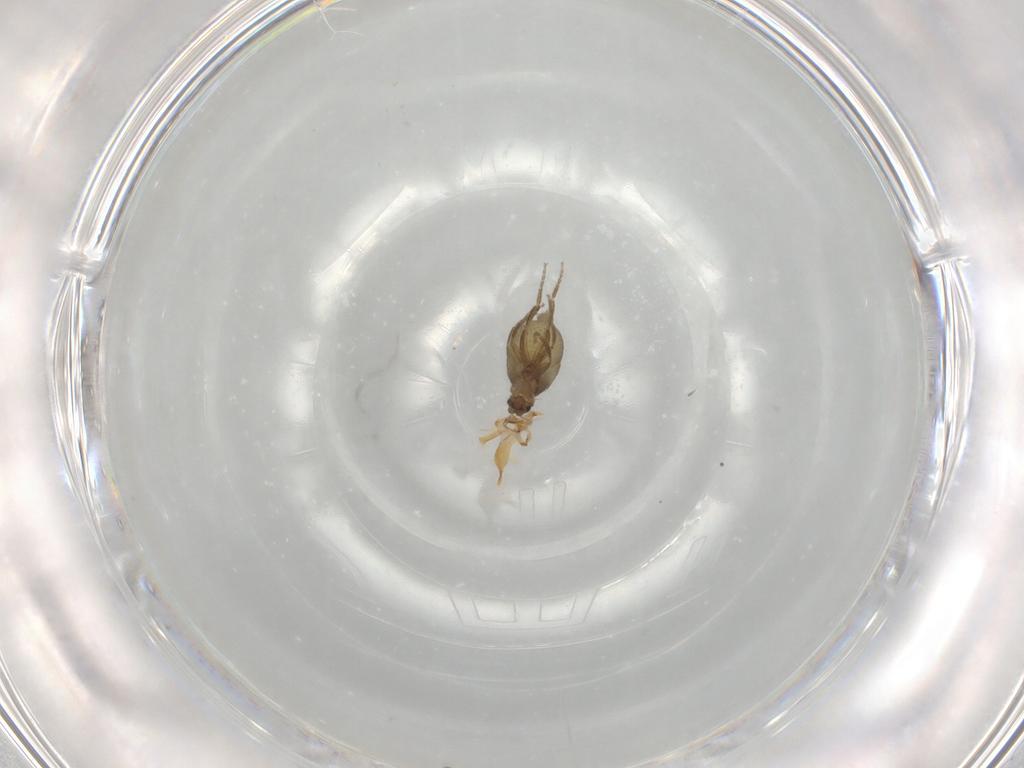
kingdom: Animalia
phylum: Arthropoda
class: Insecta
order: Diptera
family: Phoridae
